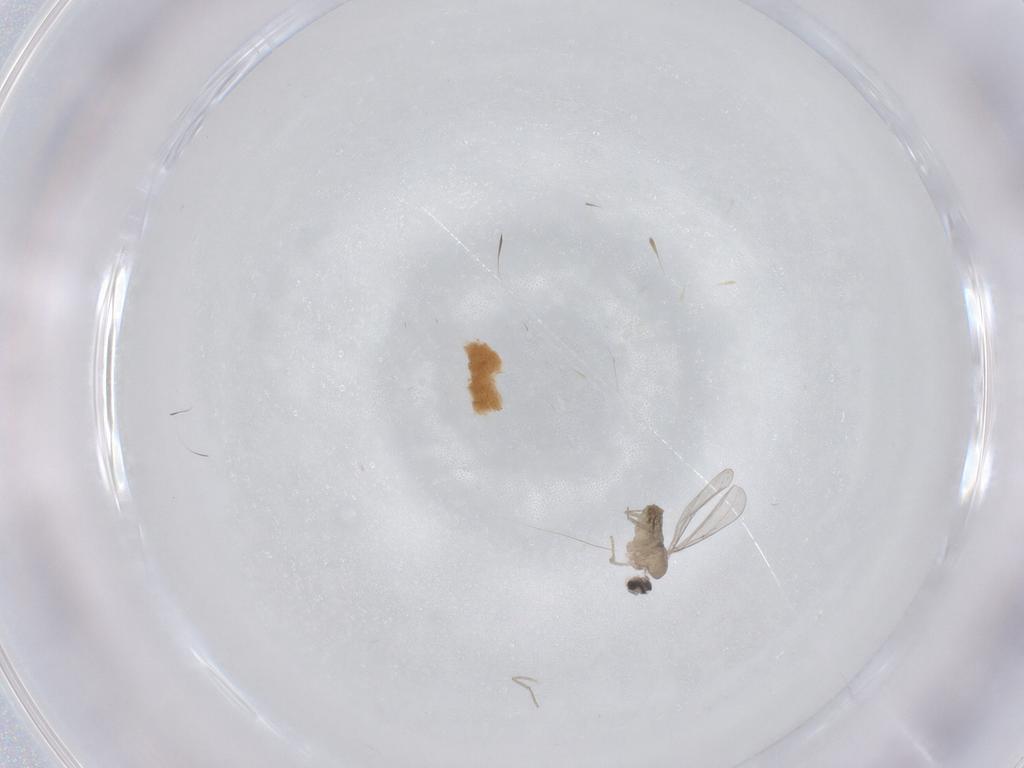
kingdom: Animalia
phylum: Arthropoda
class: Insecta
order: Diptera
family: Cecidomyiidae
